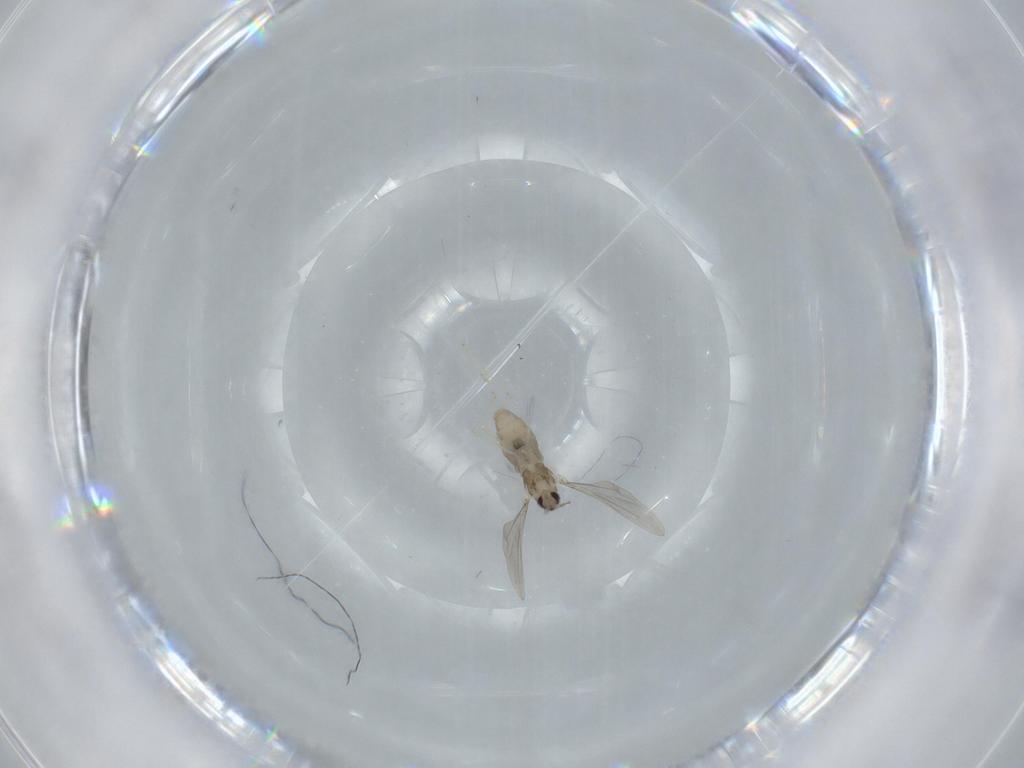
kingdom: Animalia
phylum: Arthropoda
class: Insecta
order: Diptera
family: Cecidomyiidae
